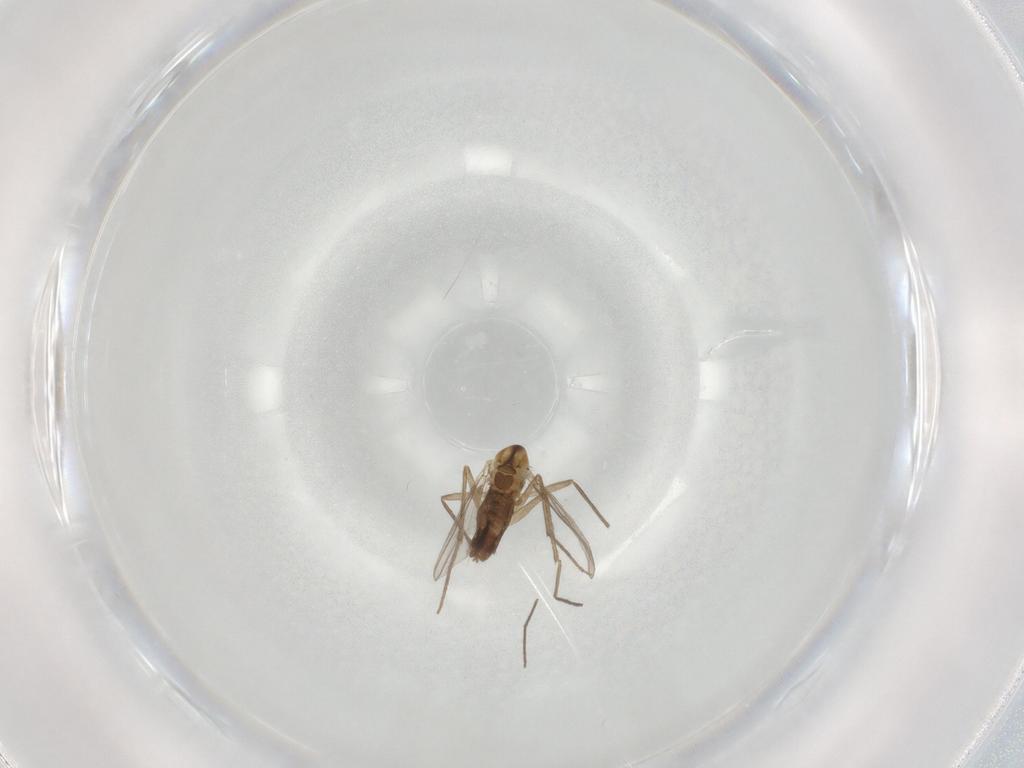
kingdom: Animalia
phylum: Arthropoda
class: Insecta
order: Diptera
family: Chironomidae
